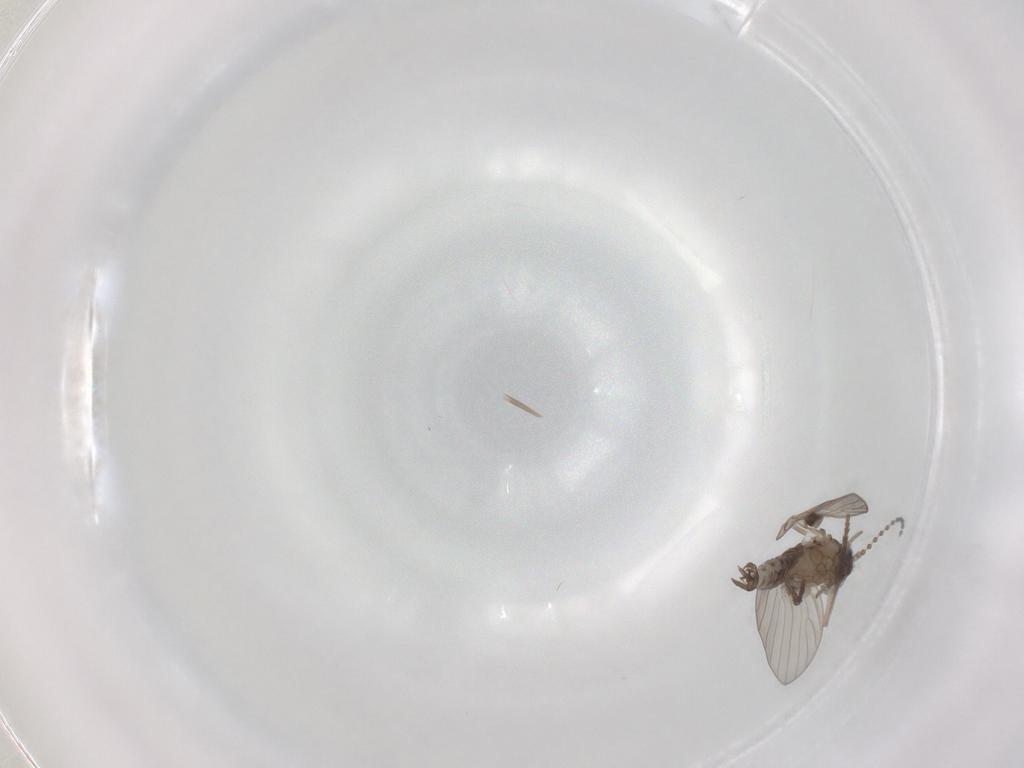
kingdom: Animalia
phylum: Arthropoda
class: Insecta
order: Diptera
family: Psychodidae
